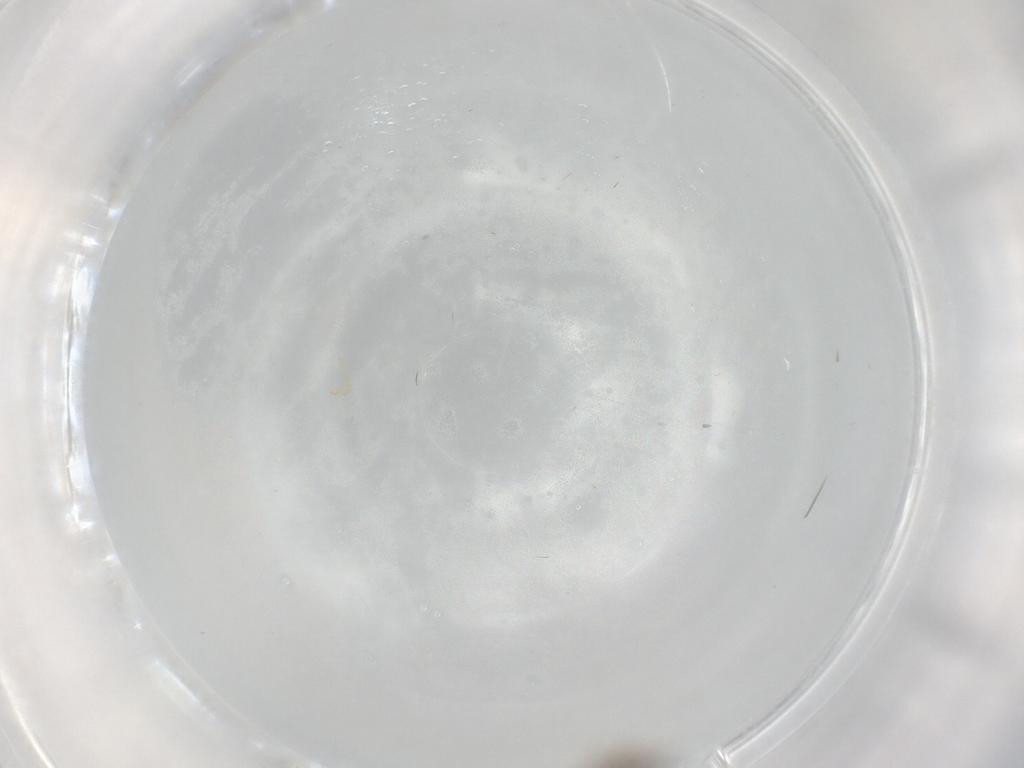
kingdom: Animalia
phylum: Arthropoda
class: Insecta
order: Diptera
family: Ceratopogonidae
